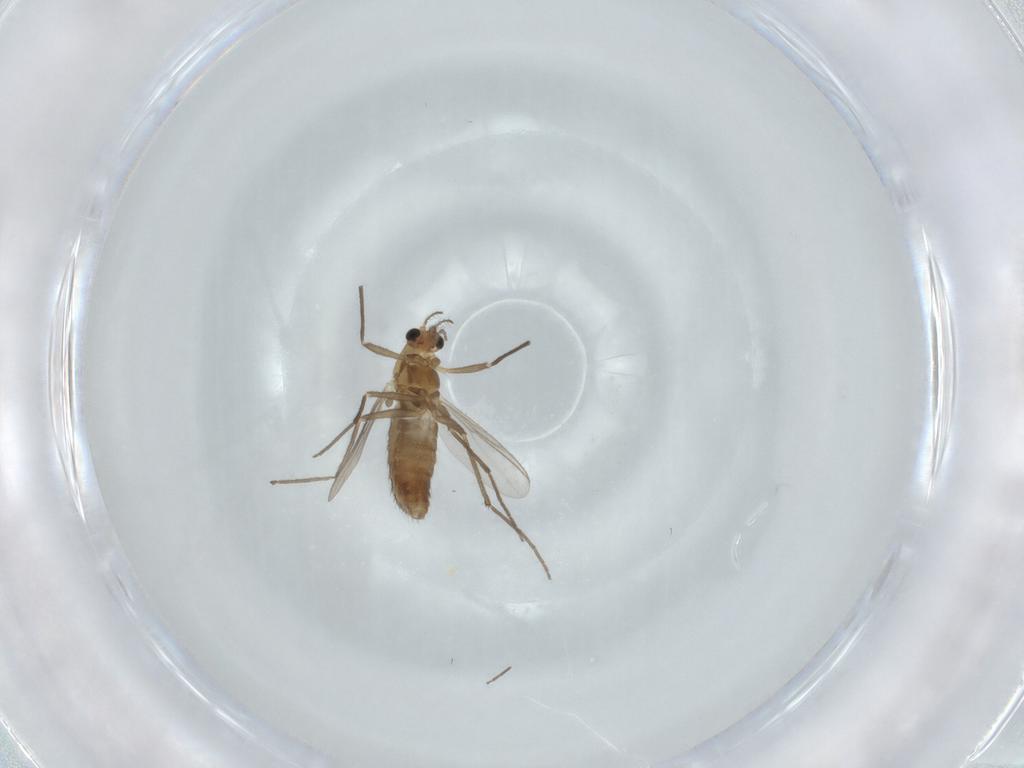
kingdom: Animalia
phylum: Arthropoda
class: Insecta
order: Diptera
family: Chironomidae
